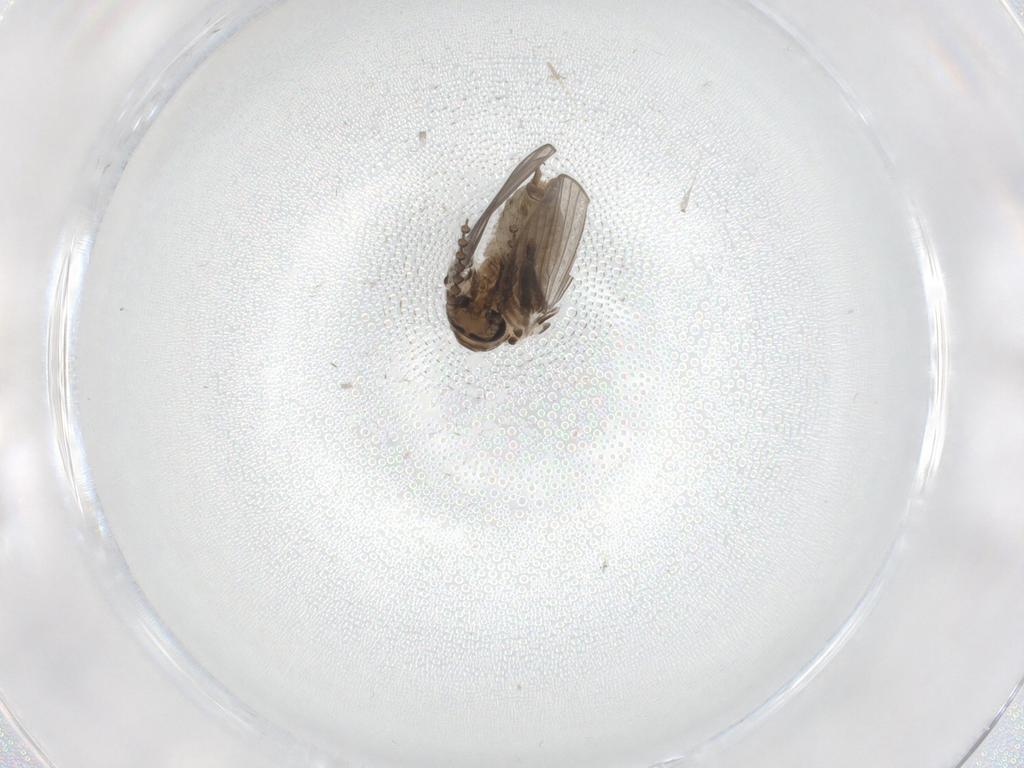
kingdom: Animalia
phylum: Arthropoda
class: Insecta
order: Diptera
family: Psychodidae
